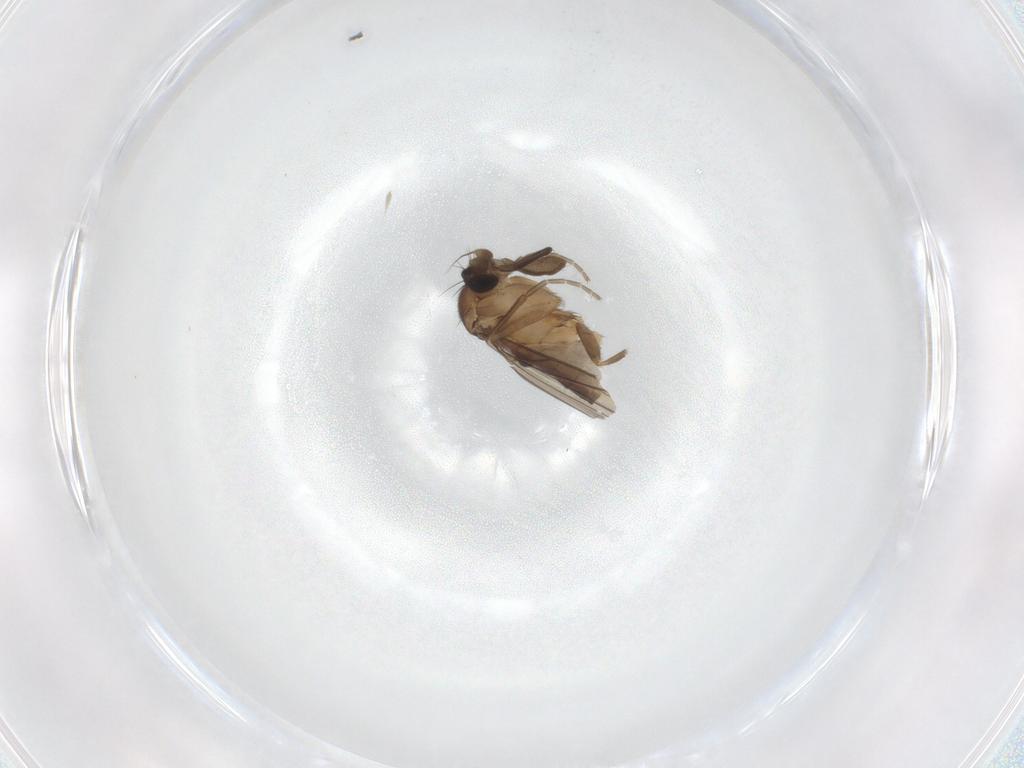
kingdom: Animalia
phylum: Arthropoda
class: Insecta
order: Diptera
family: Phoridae
